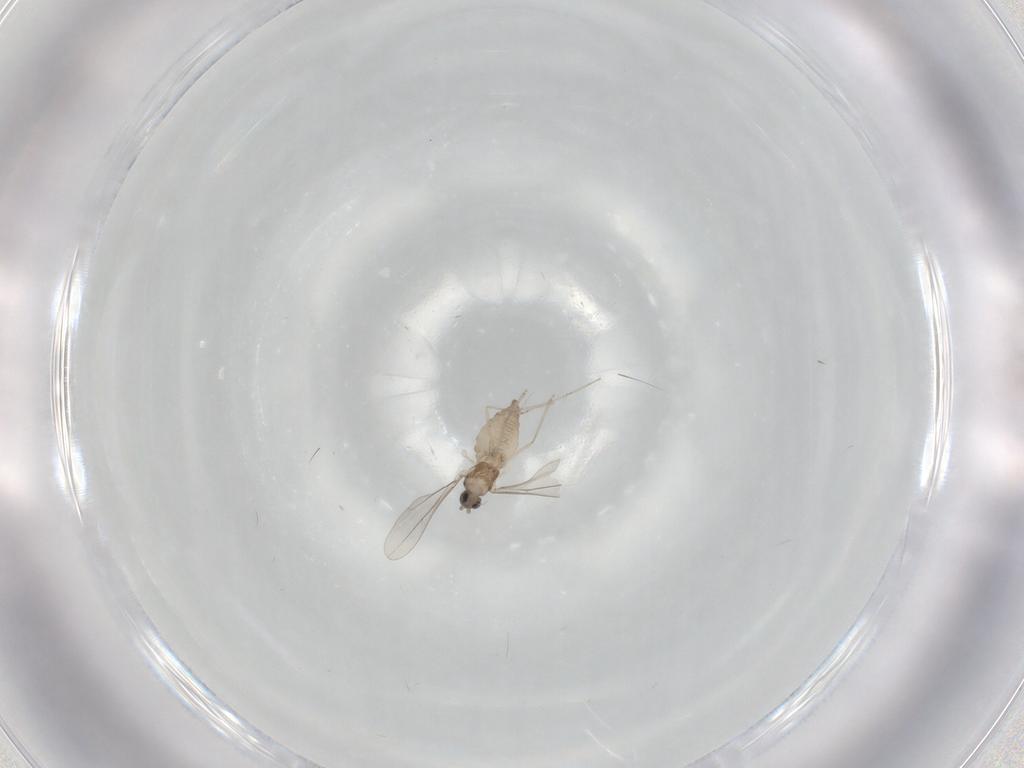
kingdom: Animalia
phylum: Arthropoda
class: Insecta
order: Diptera
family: Cecidomyiidae
